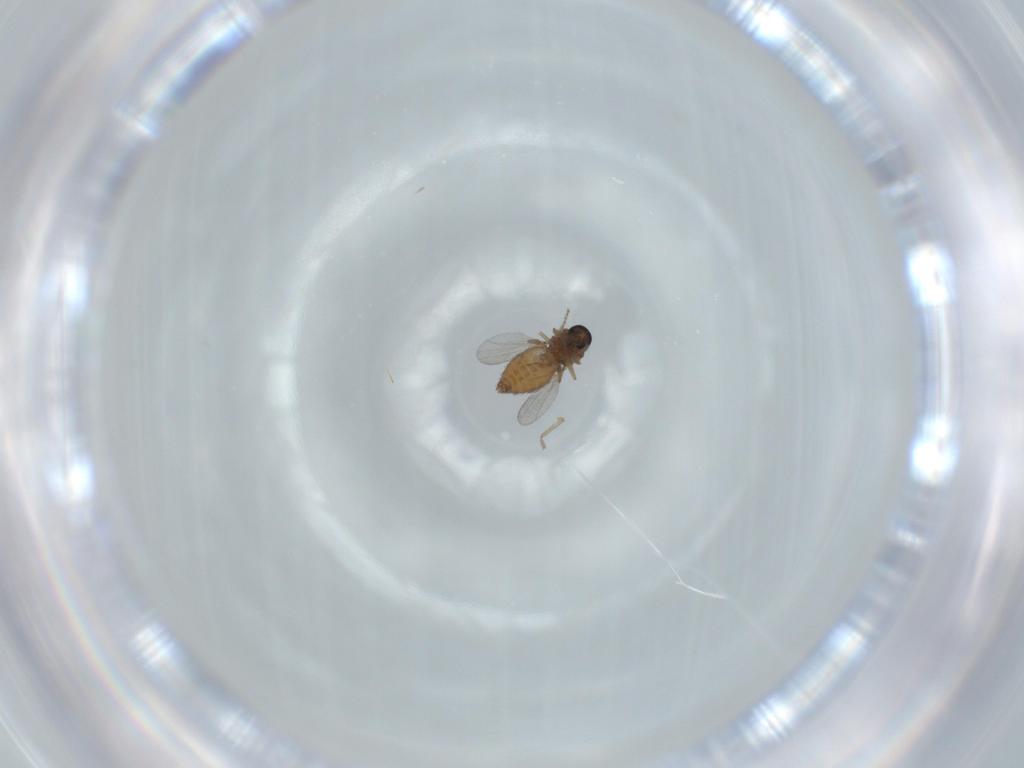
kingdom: Animalia
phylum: Arthropoda
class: Insecta
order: Diptera
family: Ceratopogonidae
